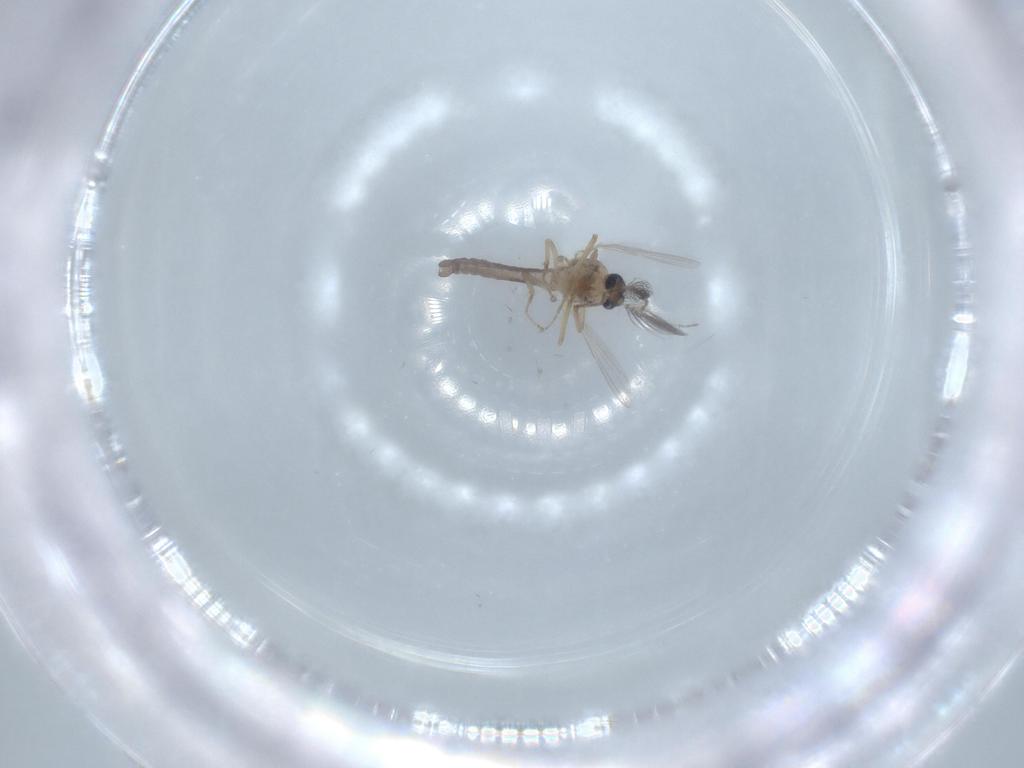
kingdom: Animalia
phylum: Arthropoda
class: Insecta
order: Diptera
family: Ceratopogonidae
